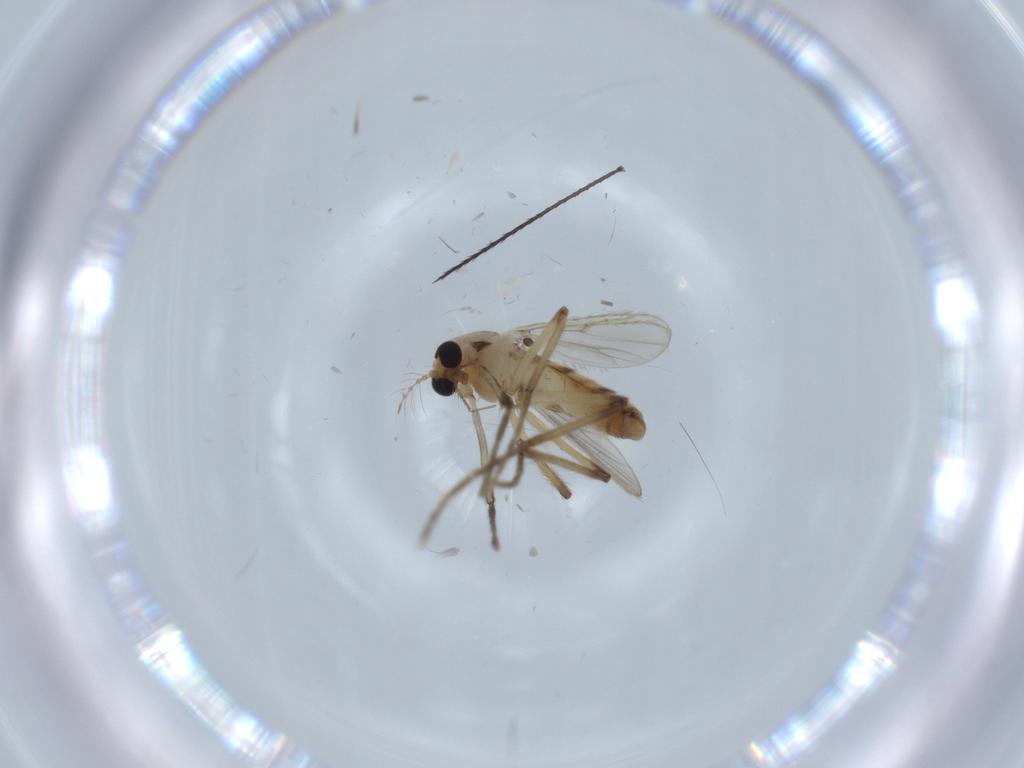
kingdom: Animalia
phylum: Arthropoda
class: Insecta
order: Diptera
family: Chironomidae
